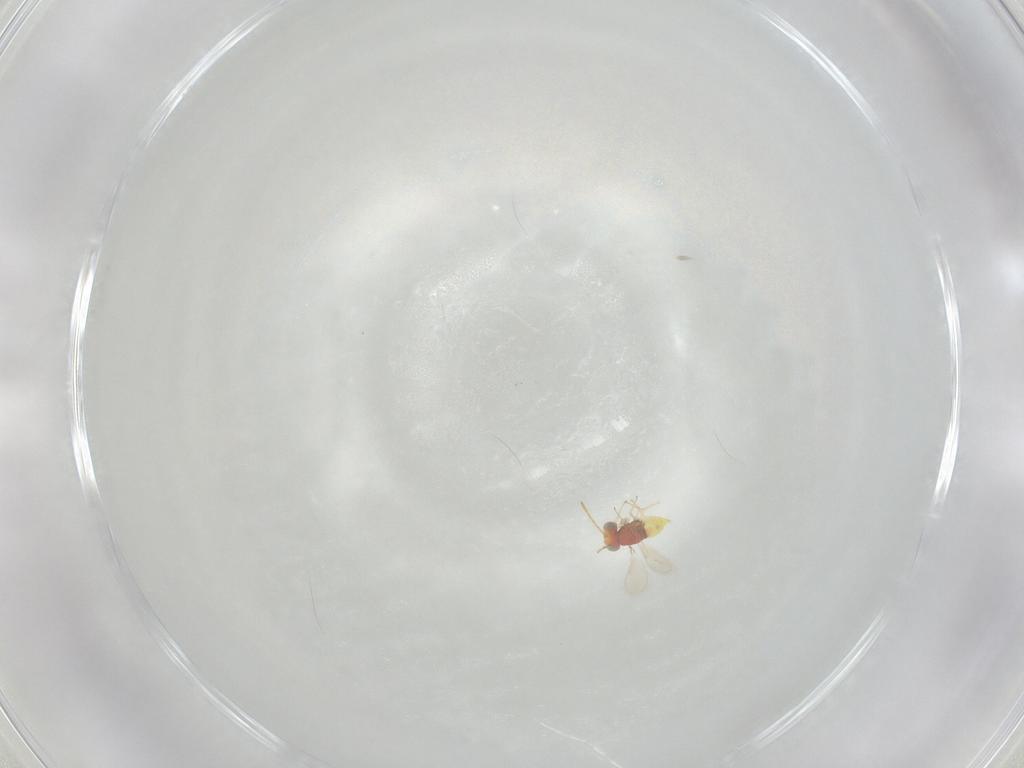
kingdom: Animalia
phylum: Arthropoda
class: Insecta
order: Hymenoptera
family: Aphelinidae
